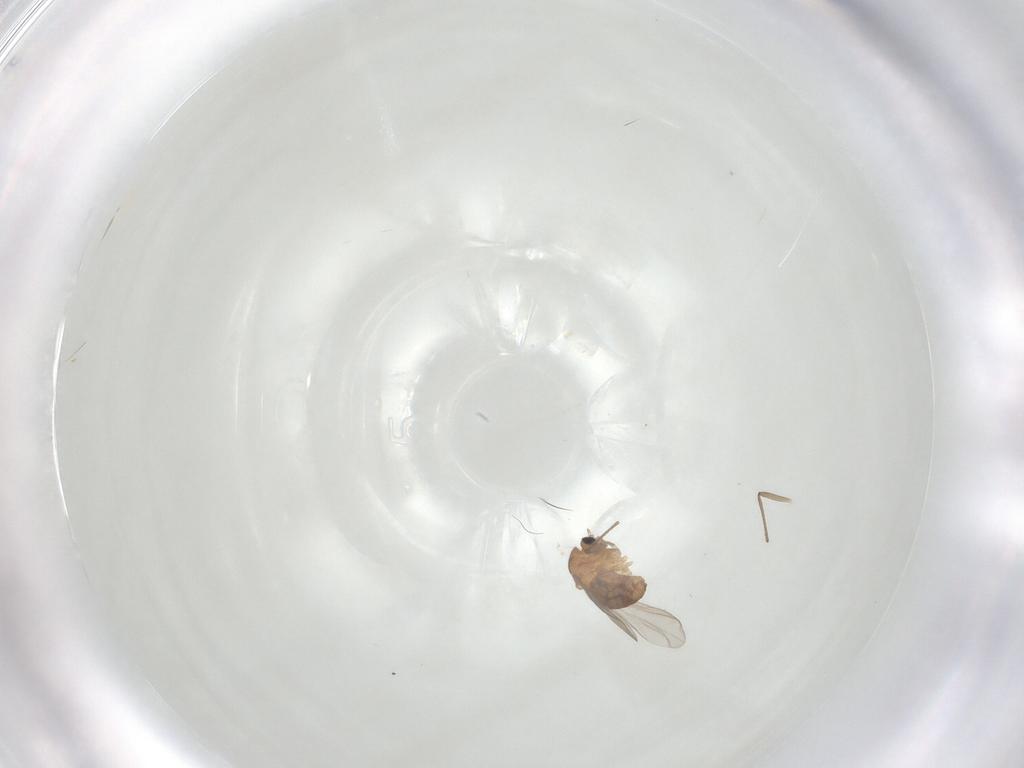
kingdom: Animalia
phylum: Arthropoda
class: Insecta
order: Diptera
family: Chironomidae
